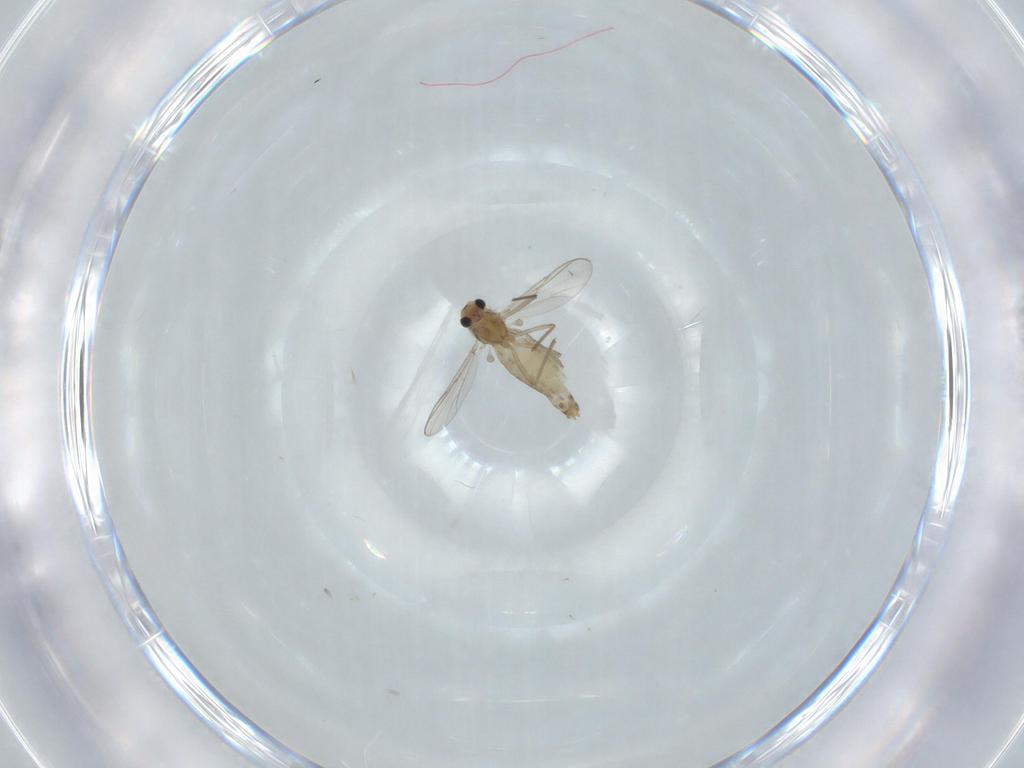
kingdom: Animalia
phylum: Arthropoda
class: Insecta
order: Diptera
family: Chironomidae
